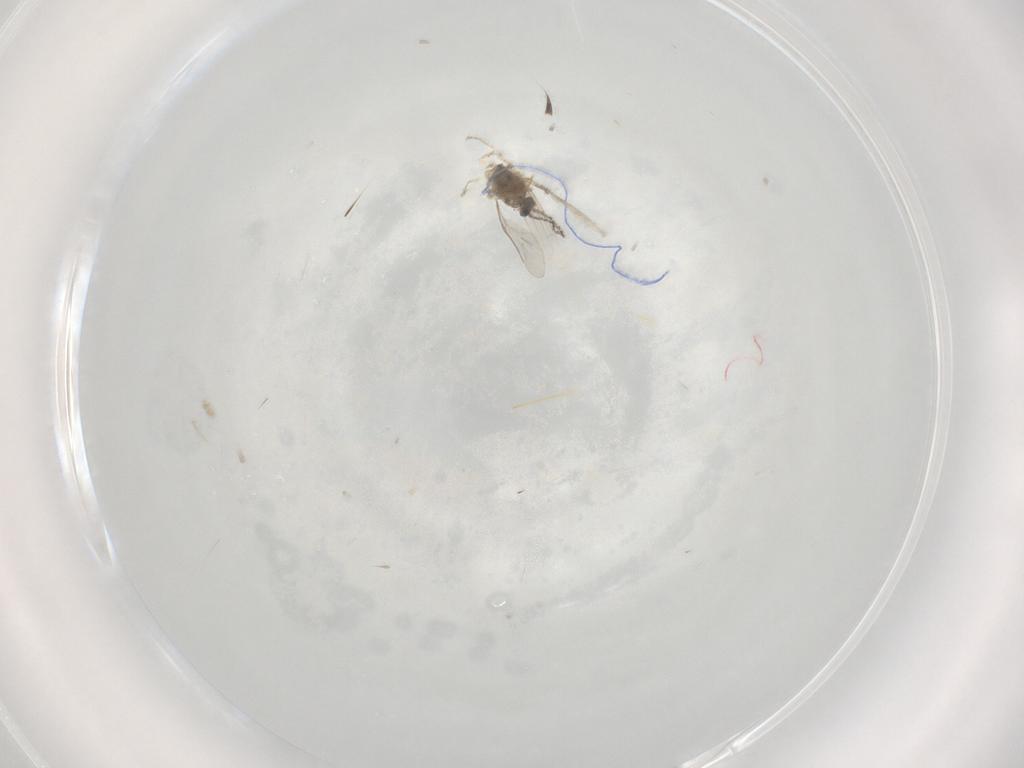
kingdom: Animalia
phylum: Arthropoda
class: Insecta
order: Diptera
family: Cecidomyiidae
